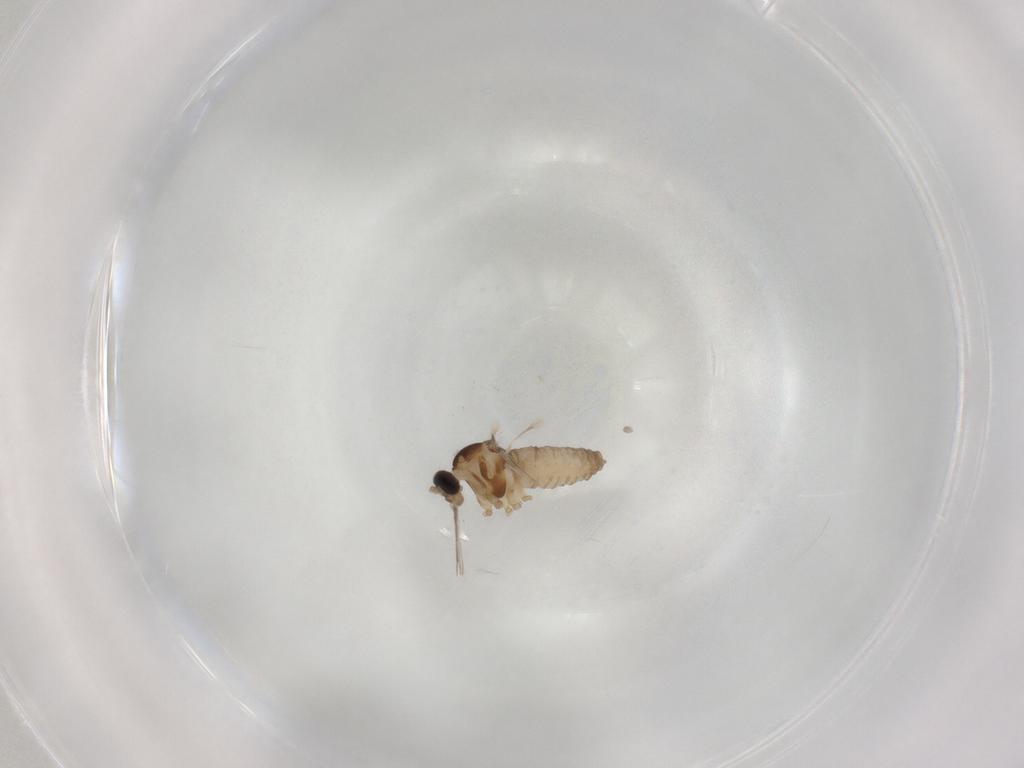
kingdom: Animalia
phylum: Arthropoda
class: Insecta
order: Diptera
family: Cecidomyiidae
